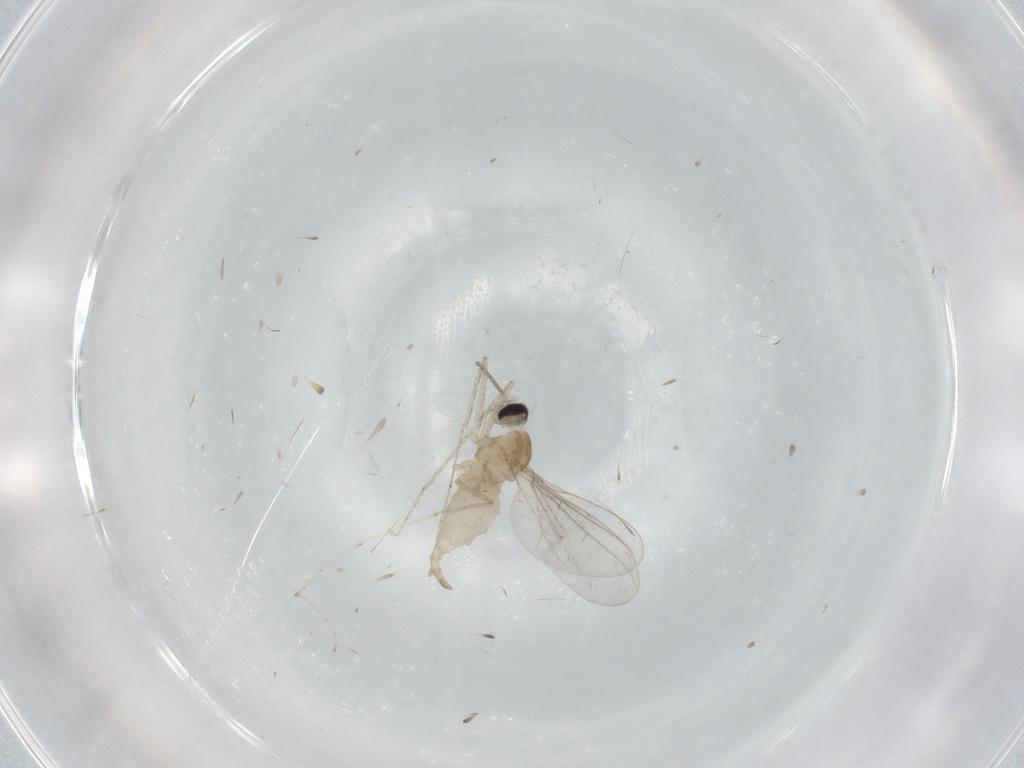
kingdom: Animalia
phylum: Arthropoda
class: Insecta
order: Diptera
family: Cecidomyiidae
